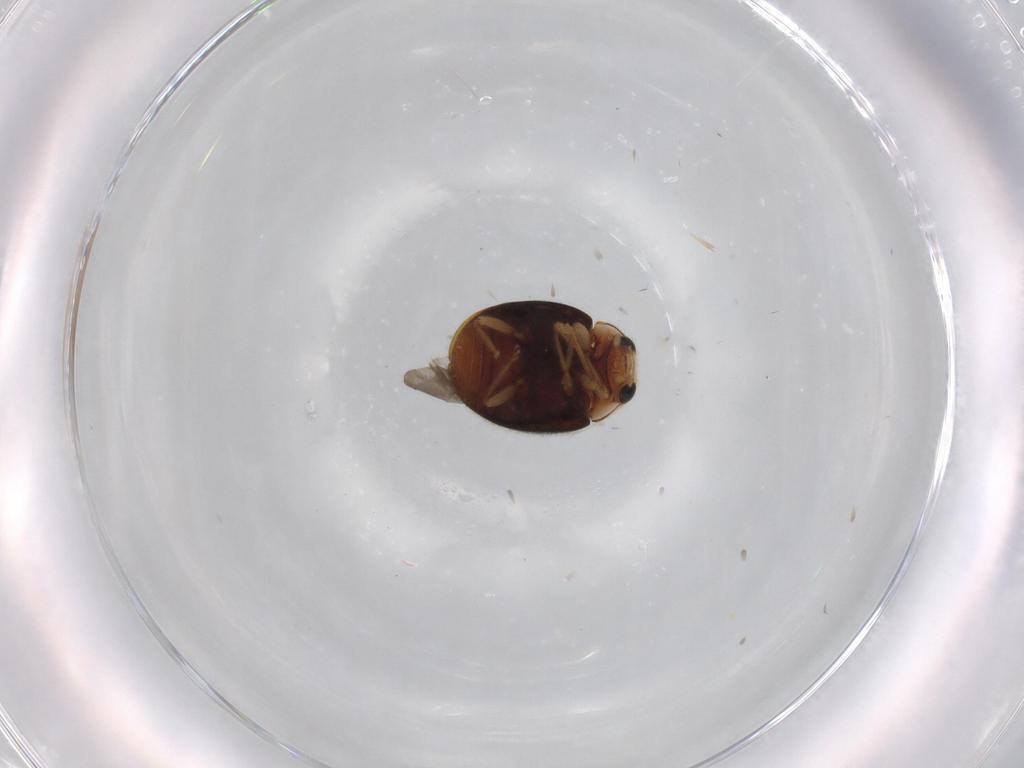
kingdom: Animalia
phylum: Arthropoda
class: Insecta
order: Coleoptera
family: Coccinellidae
